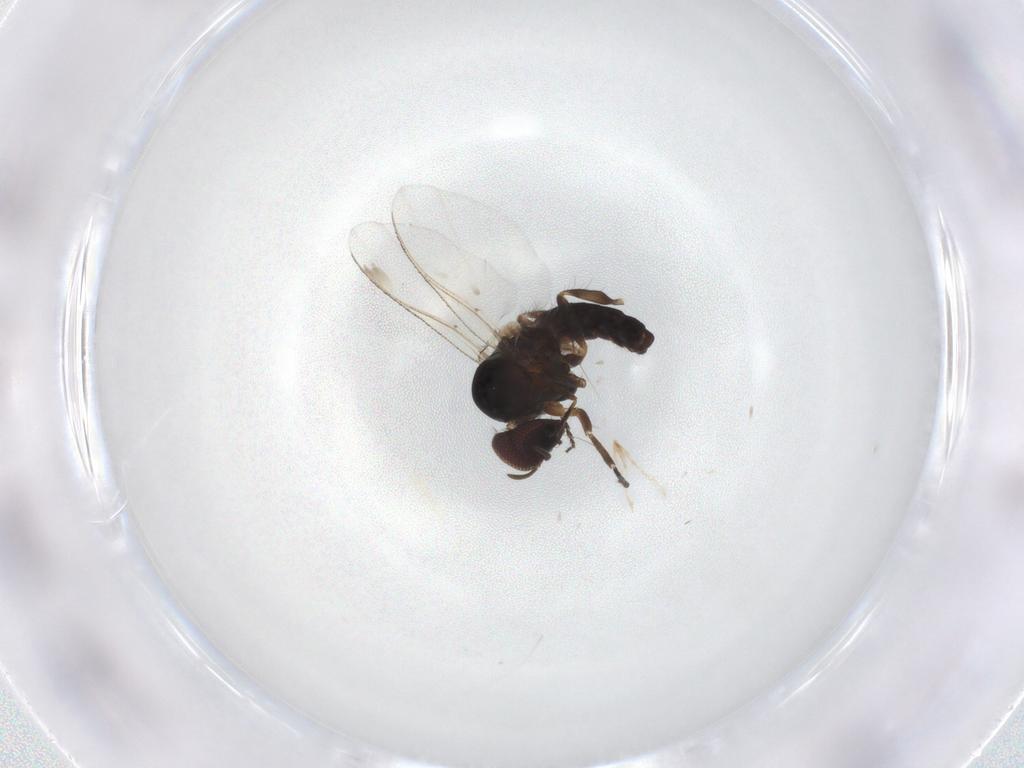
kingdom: Animalia
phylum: Arthropoda
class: Insecta
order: Diptera
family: Simuliidae
